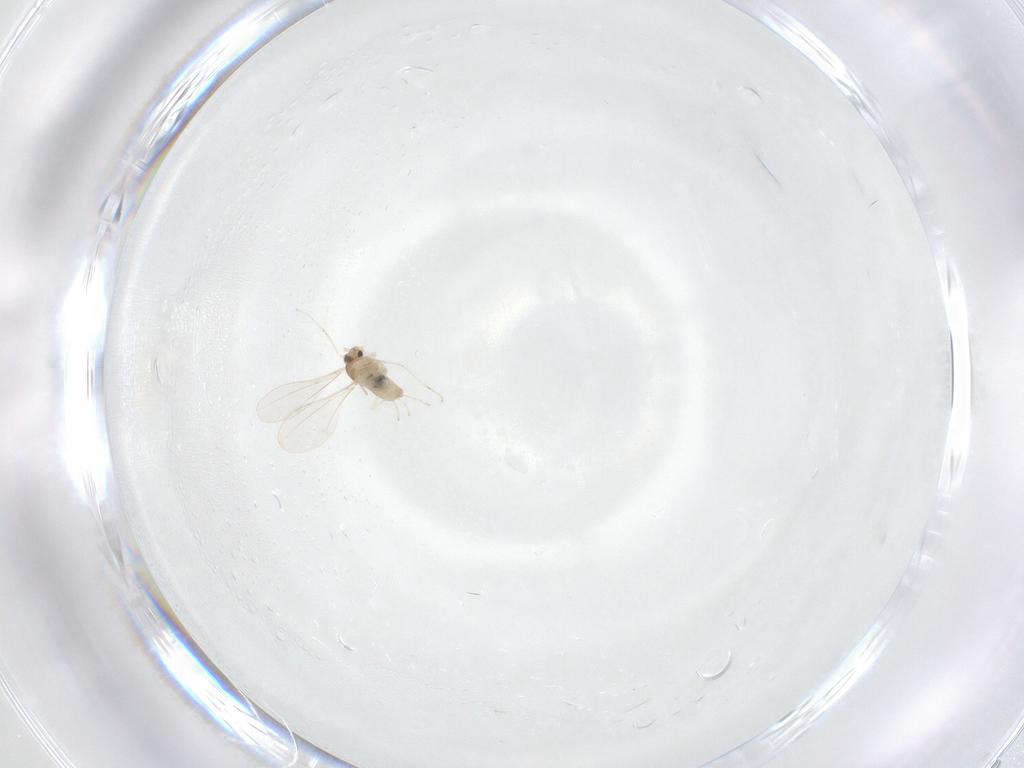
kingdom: Animalia
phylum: Arthropoda
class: Insecta
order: Diptera
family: Cecidomyiidae
